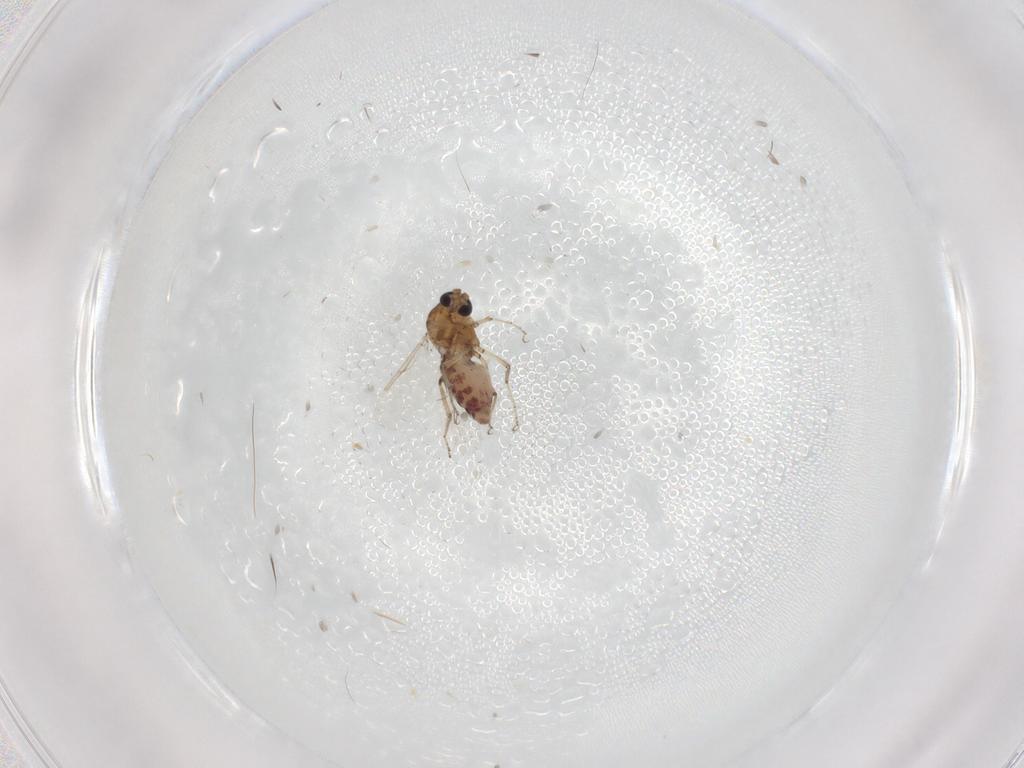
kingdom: Animalia
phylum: Arthropoda
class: Insecta
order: Diptera
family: Ceratopogonidae
